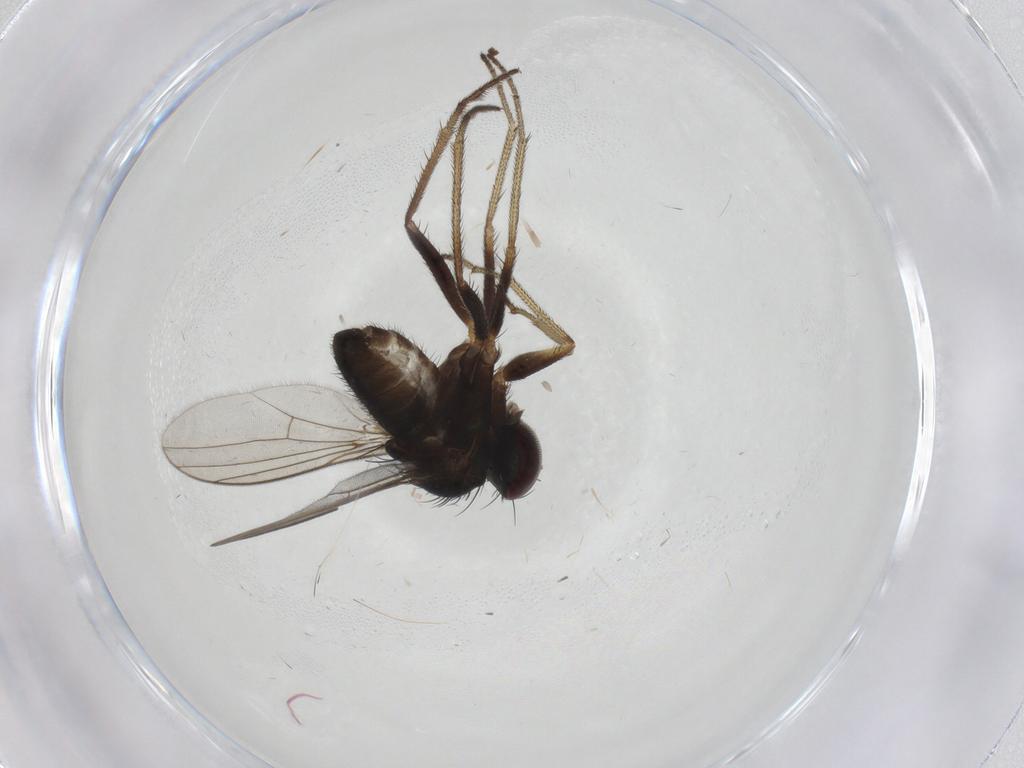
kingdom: Animalia
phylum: Arthropoda
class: Insecta
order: Diptera
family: Dolichopodidae
